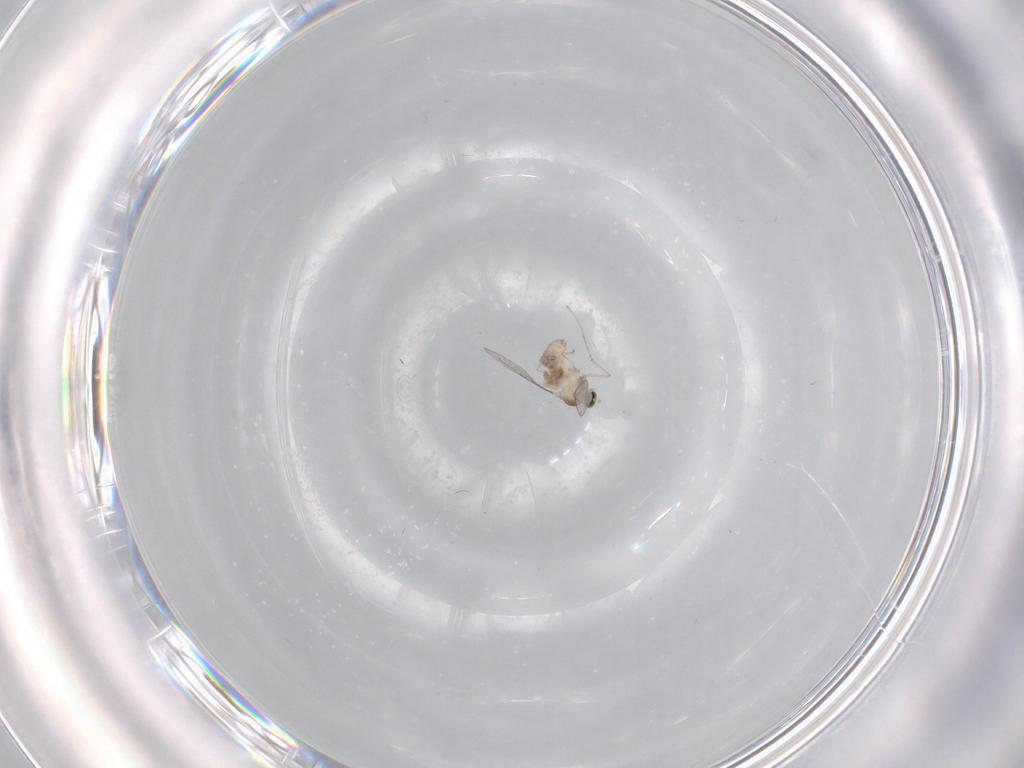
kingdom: Animalia
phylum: Arthropoda
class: Insecta
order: Diptera
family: Cecidomyiidae
